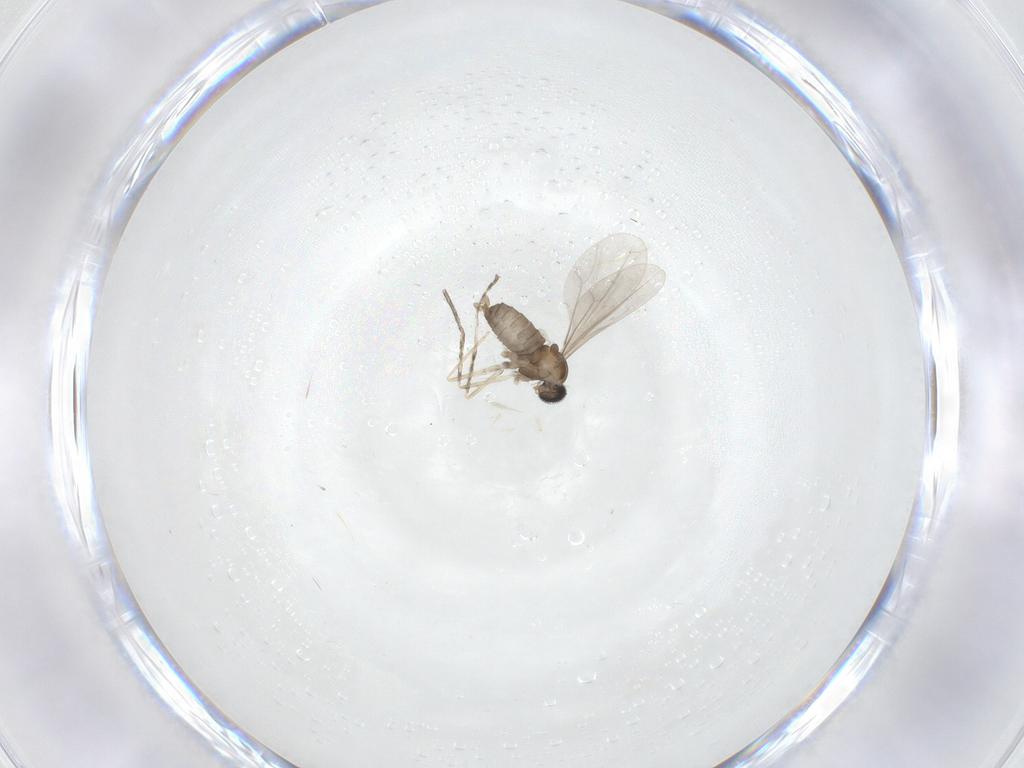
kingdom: Animalia
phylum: Arthropoda
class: Insecta
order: Diptera
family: Cecidomyiidae
